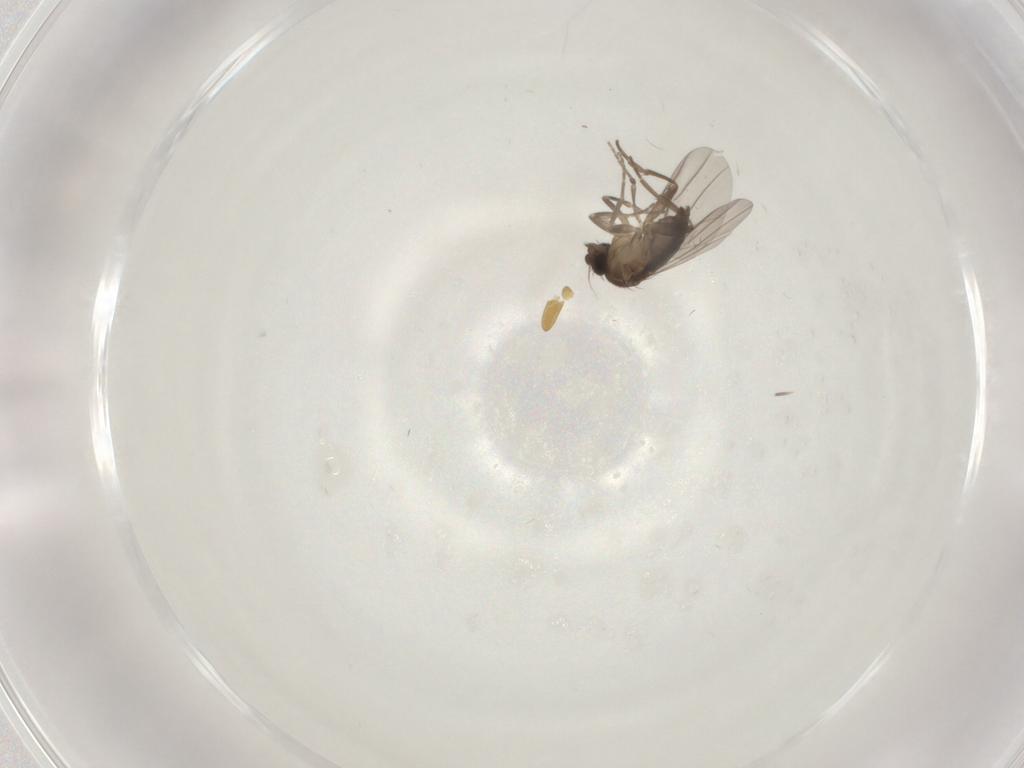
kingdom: Animalia
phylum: Arthropoda
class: Insecta
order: Diptera
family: Phoridae
